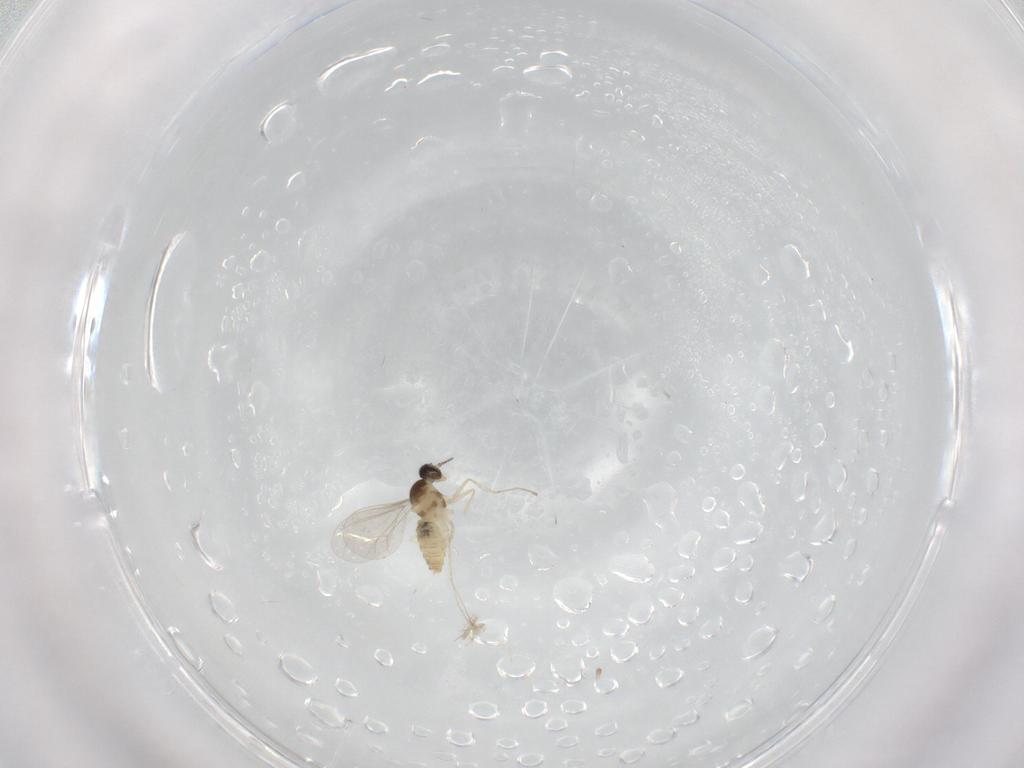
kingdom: Animalia
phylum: Arthropoda
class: Insecta
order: Diptera
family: Cecidomyiidae
